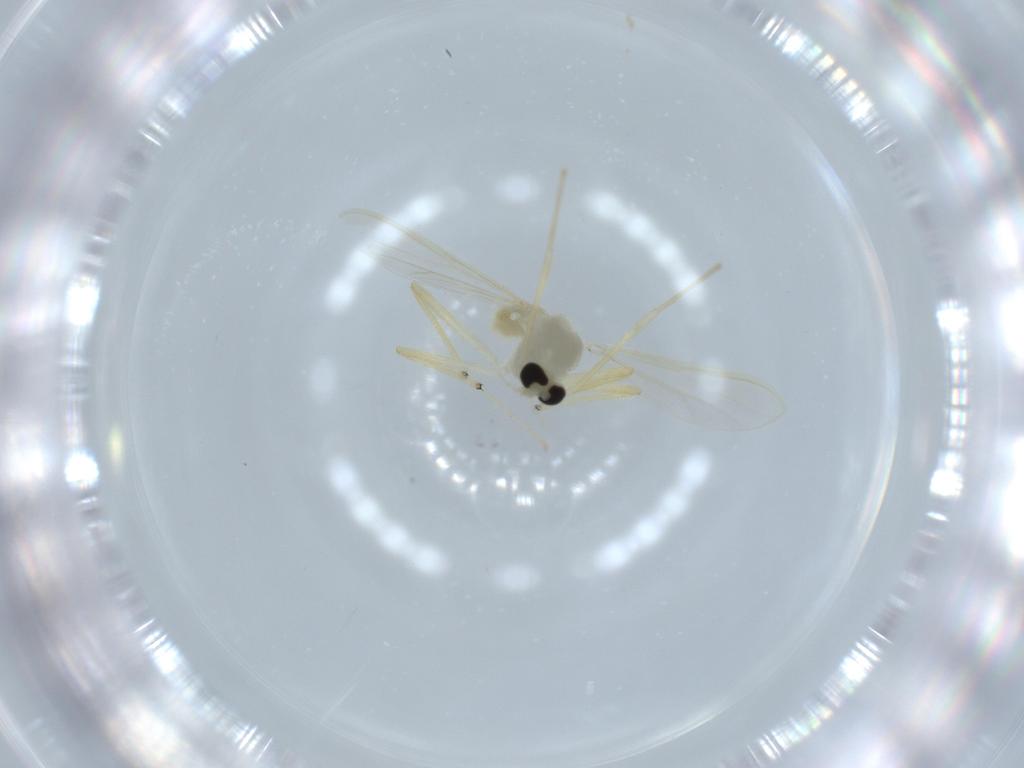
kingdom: Animalia
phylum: Arthropoda
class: Insecta
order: Diptera
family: Chironomidae
